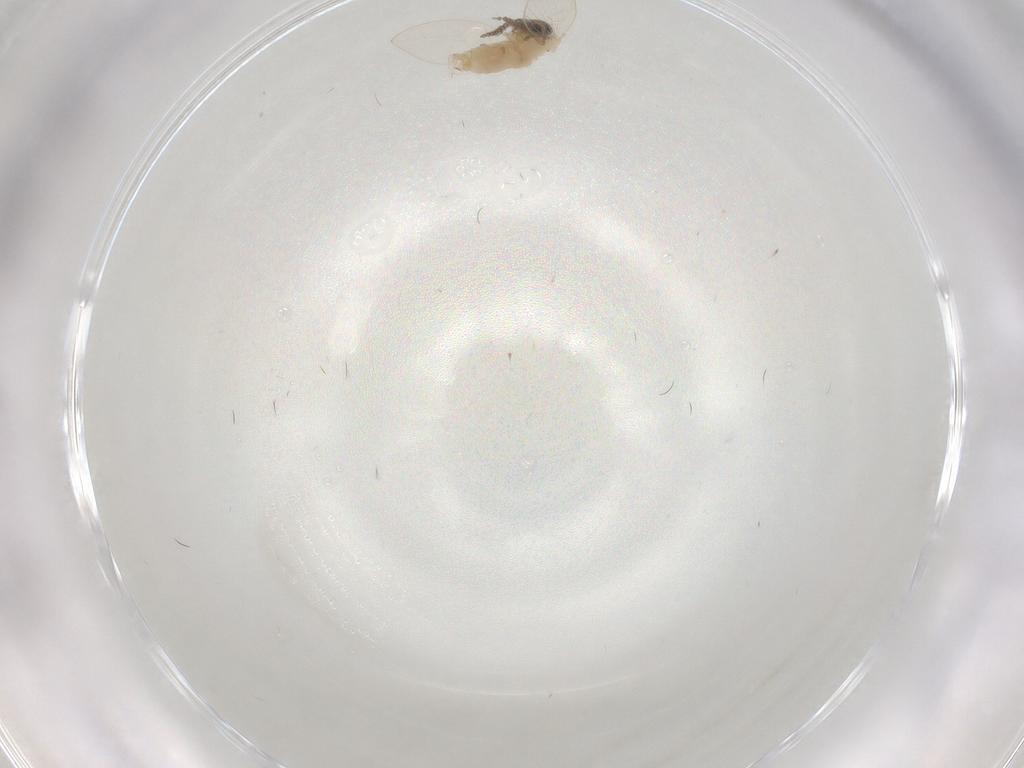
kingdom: Animalia
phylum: Arthropoda
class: Insecta
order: Diptera
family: Psychodidae
